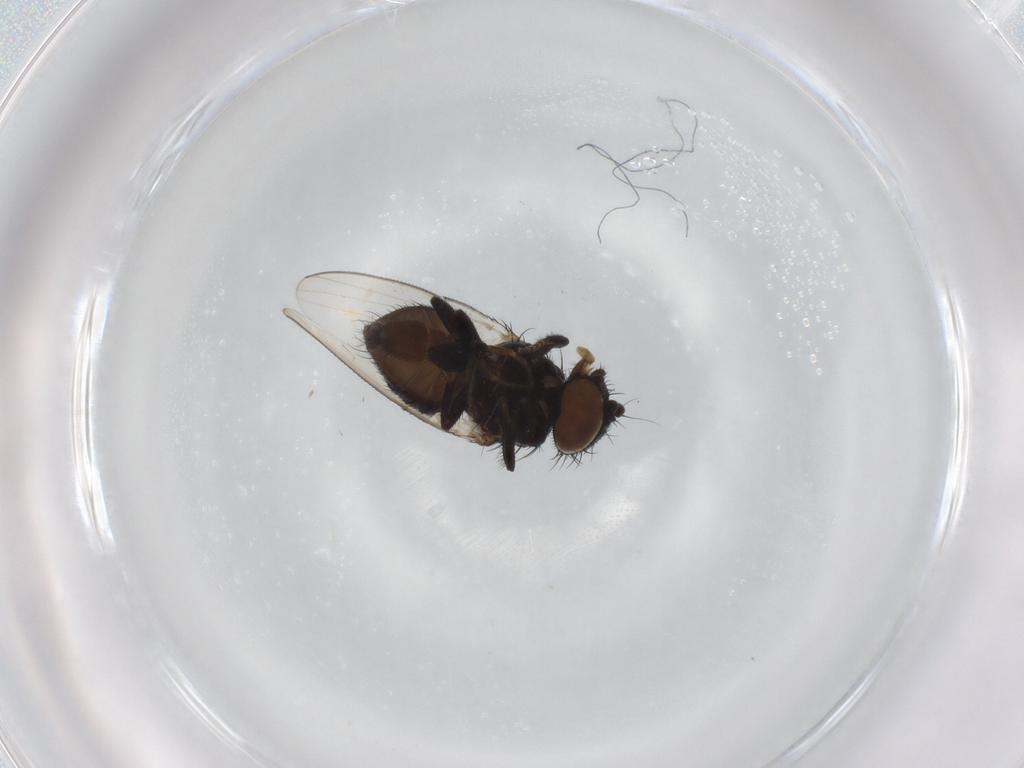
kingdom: Animalia
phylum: Arthropoda
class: Insecta
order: Diptera
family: Milichiidae
